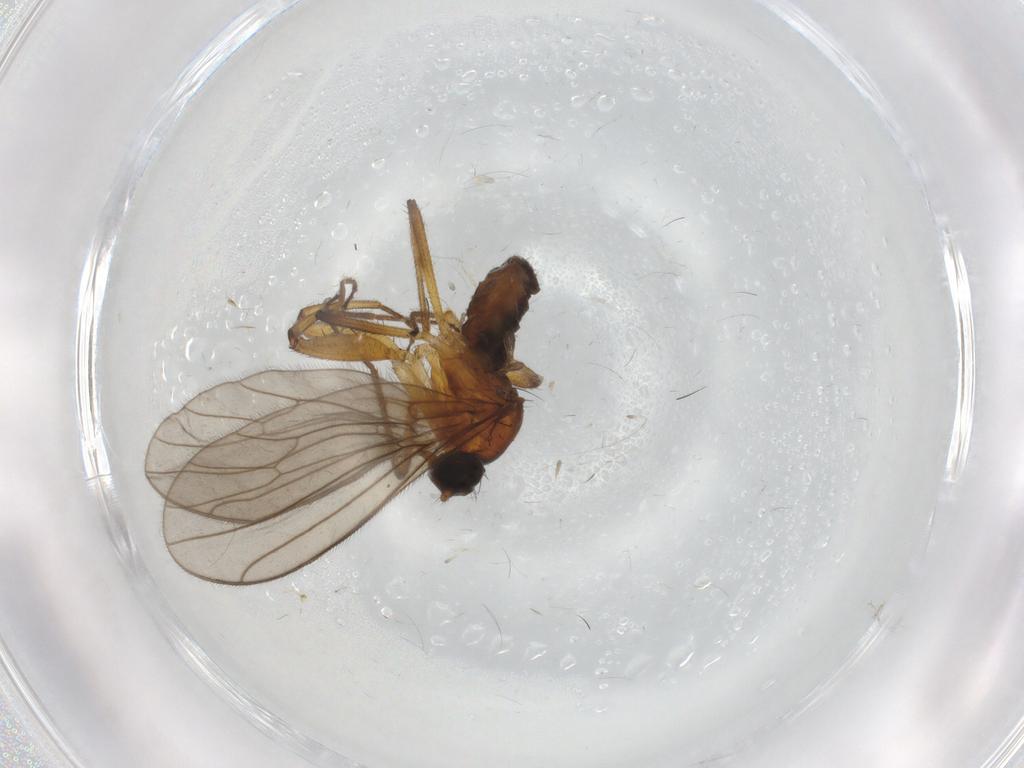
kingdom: Animalia
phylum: Arthropoda
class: Insecta
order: Diptera
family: Empididae
